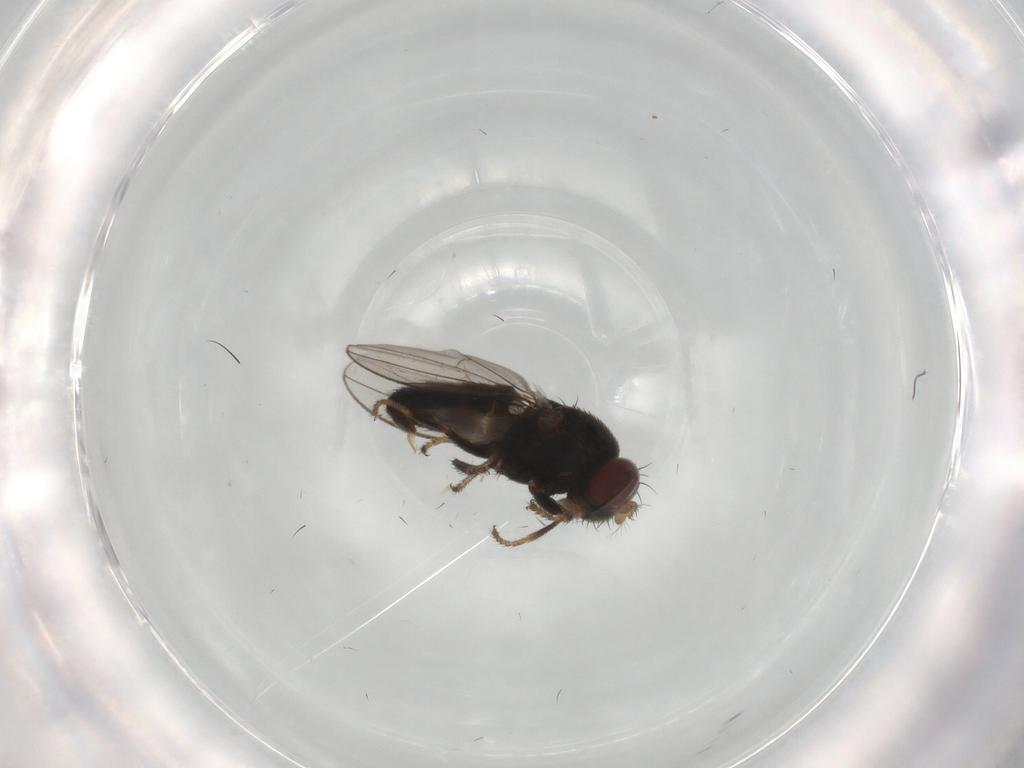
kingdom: Animalia
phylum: Arthropoda
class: Insecta
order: Diptera
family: Ephydridae
